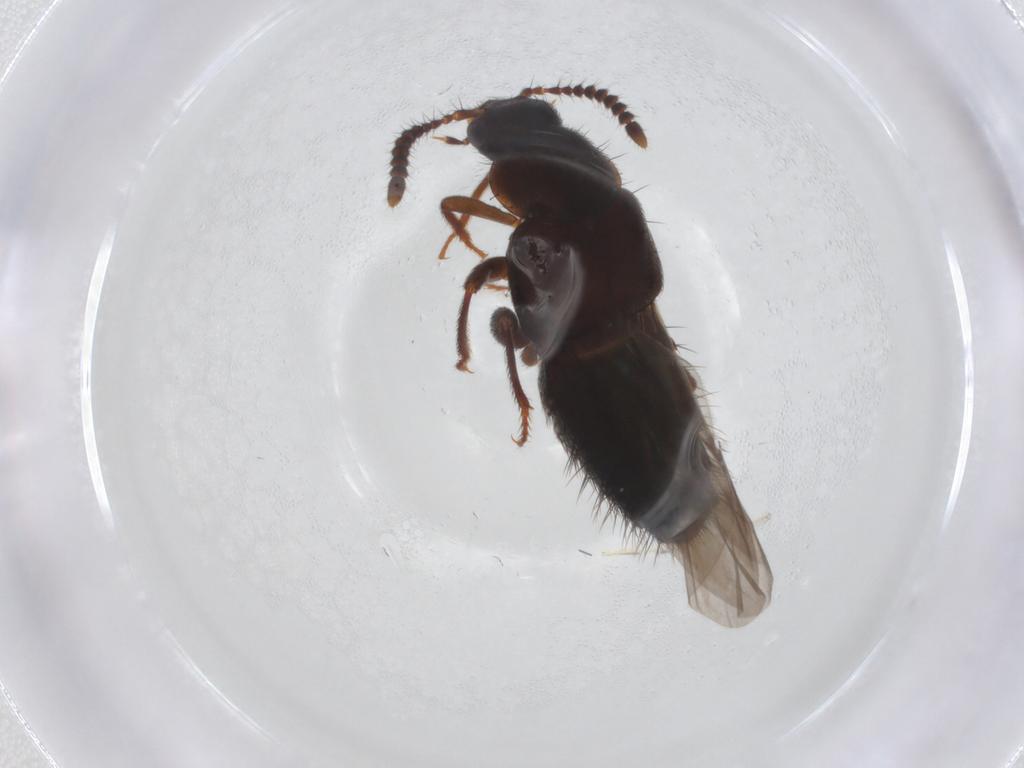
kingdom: Animalia
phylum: Arthropoda
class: Insecta
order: Coleoptera
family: Staphylinidae
